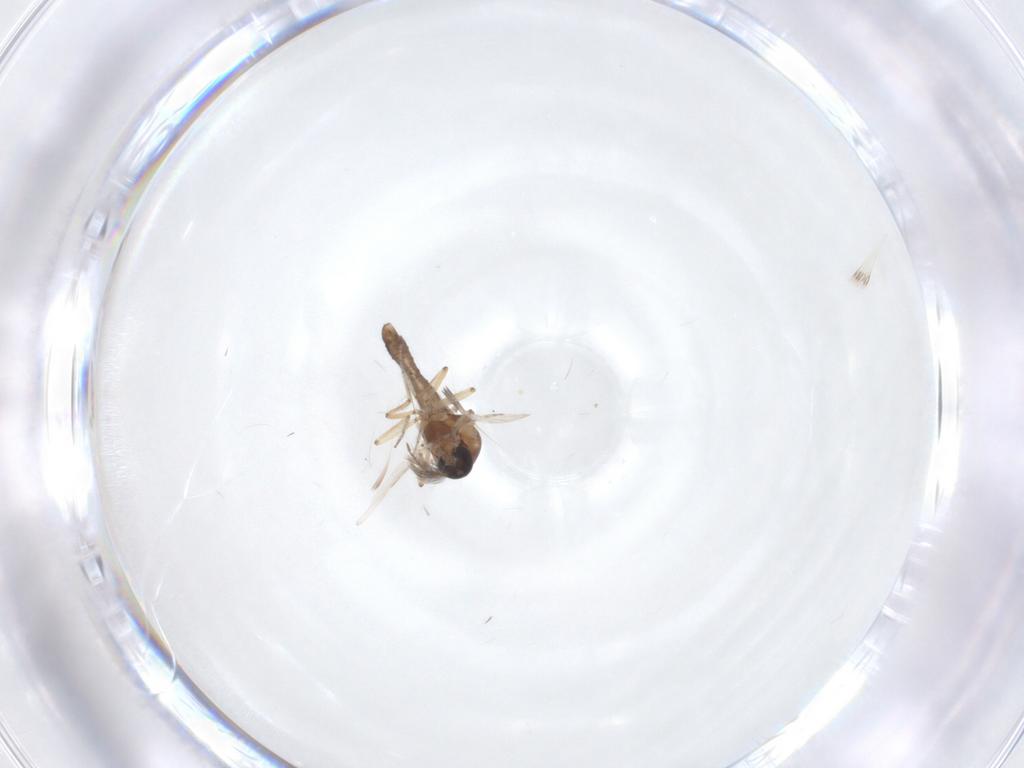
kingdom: Animalia
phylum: Arthropoda
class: Insecta
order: Diptera
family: Ceratopogonidae
